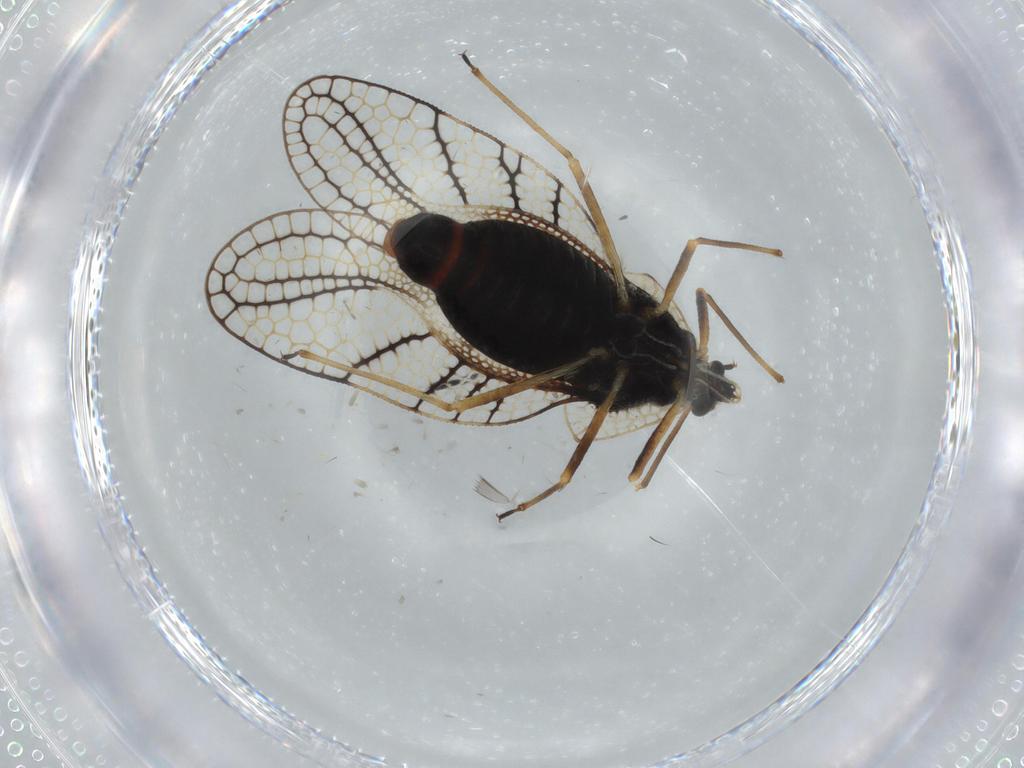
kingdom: Animalia
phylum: Arthropoda
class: Insecta
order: Hemiptera
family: Tingidae
